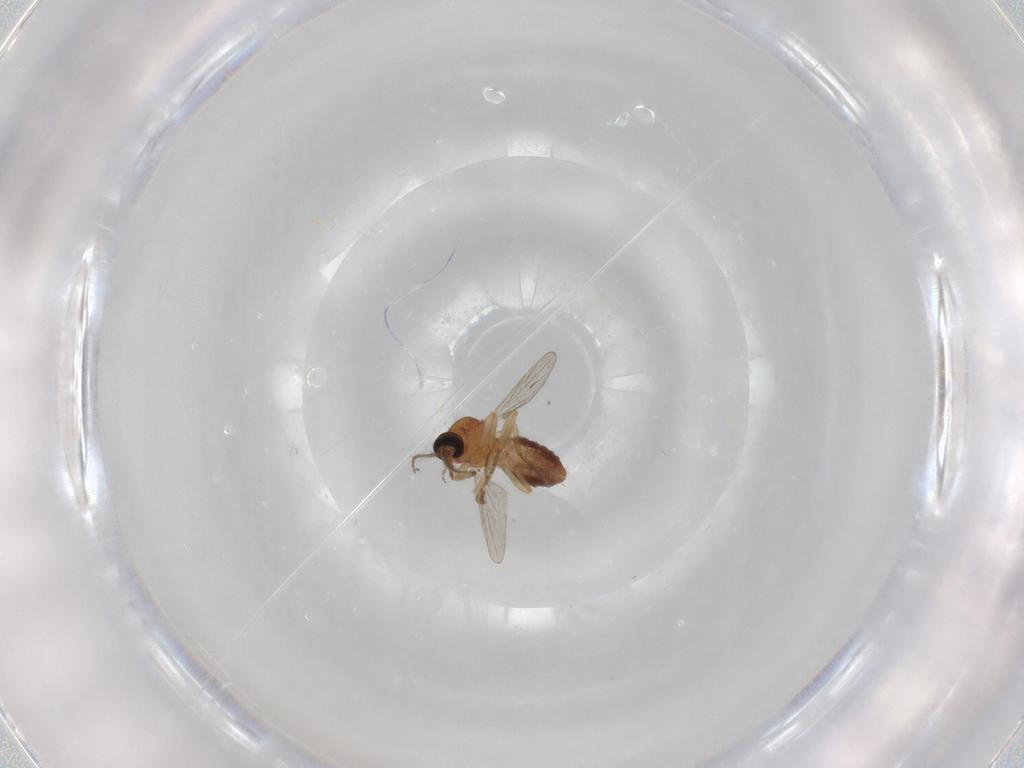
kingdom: Animalia
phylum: Arthropoda
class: Insecta
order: Diptera
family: Ceratopogonidae
